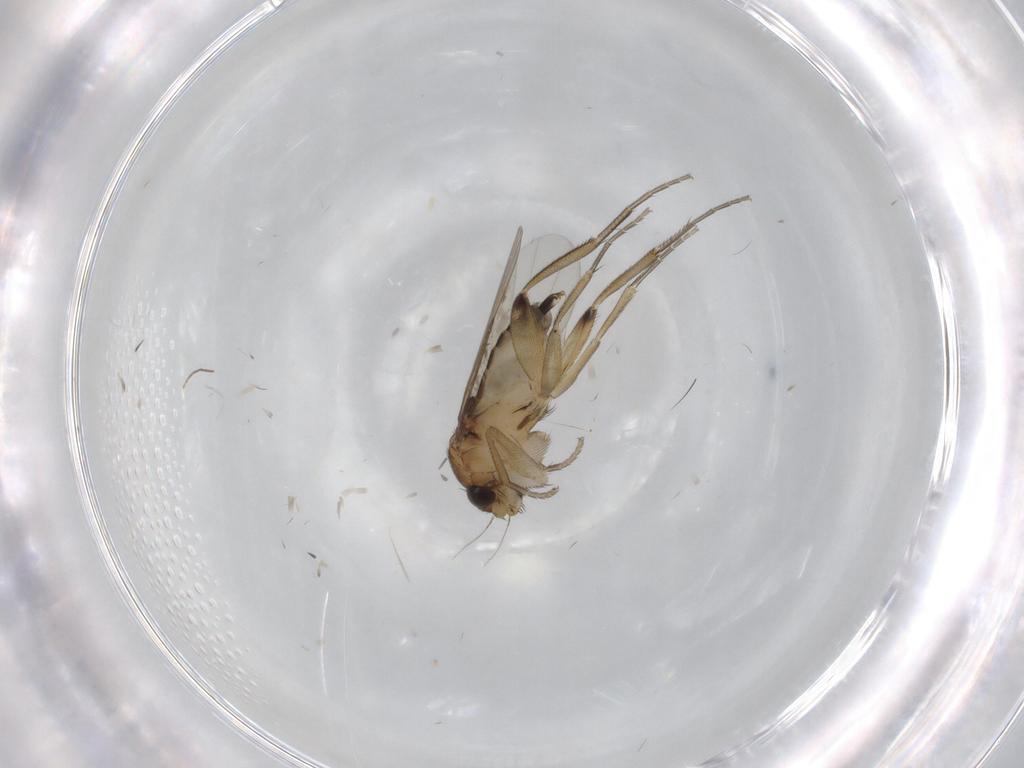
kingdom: Animalia
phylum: Arthropoda
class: Insecta
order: Diptera
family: Phoridae
